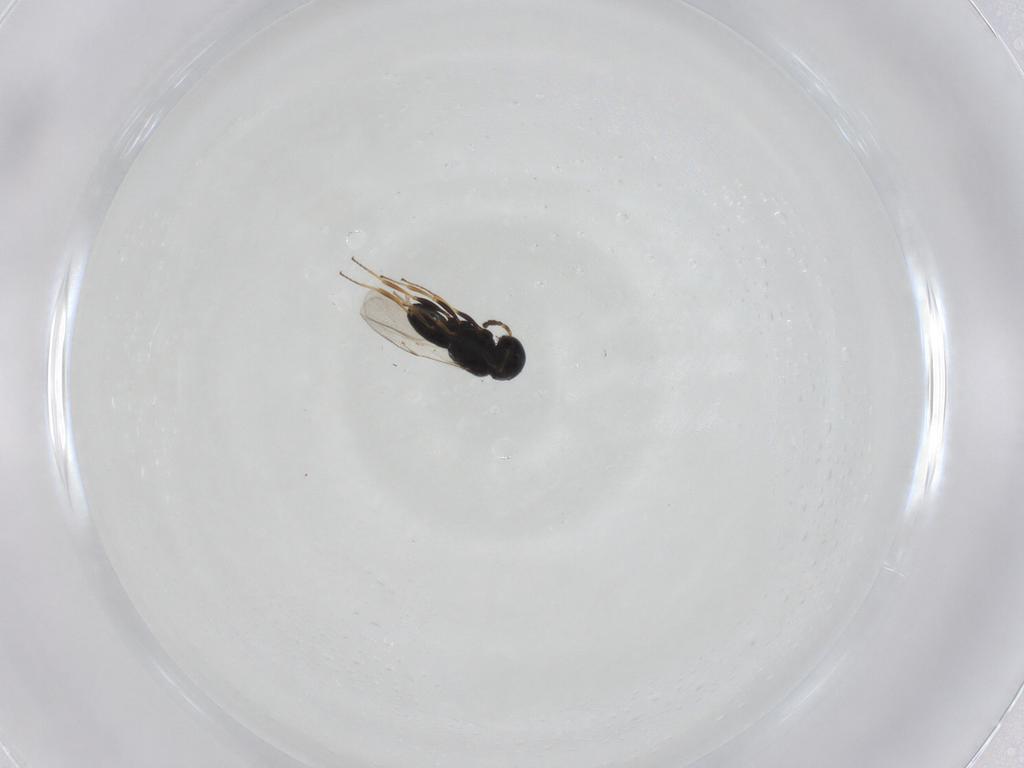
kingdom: Animalia
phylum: Arthropoda
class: Insecta
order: Hymenoptera
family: Scelionidae
